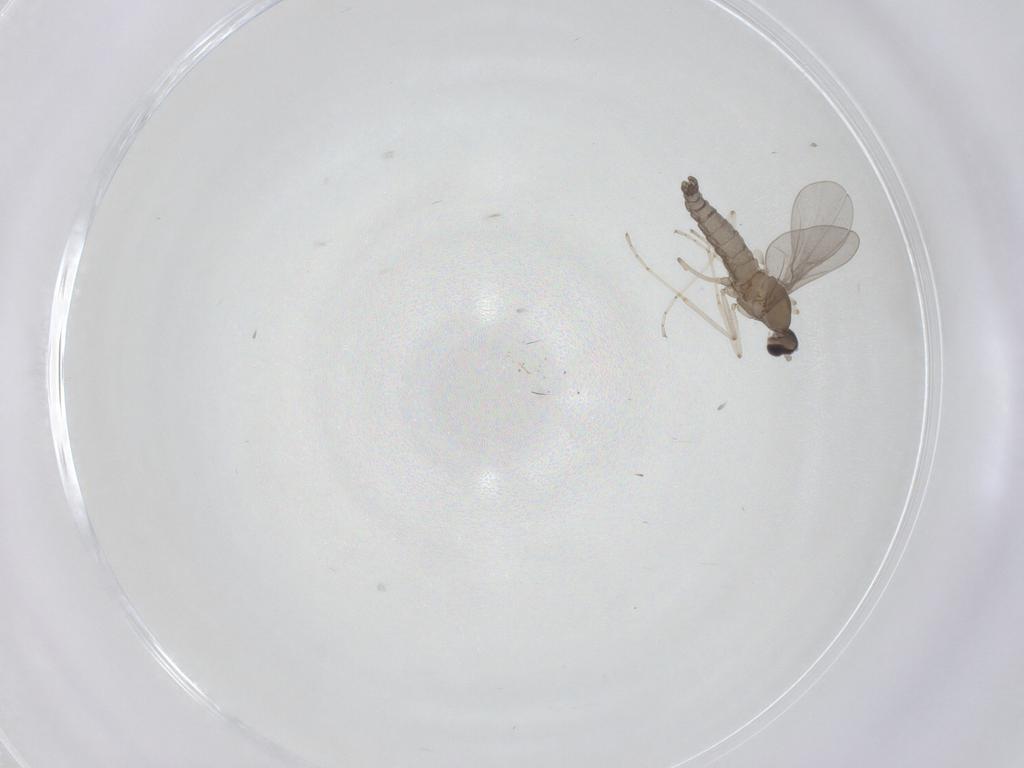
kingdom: Animalia
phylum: Arthropoda
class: Insecta
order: Diptera
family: Cecidomyiidae
